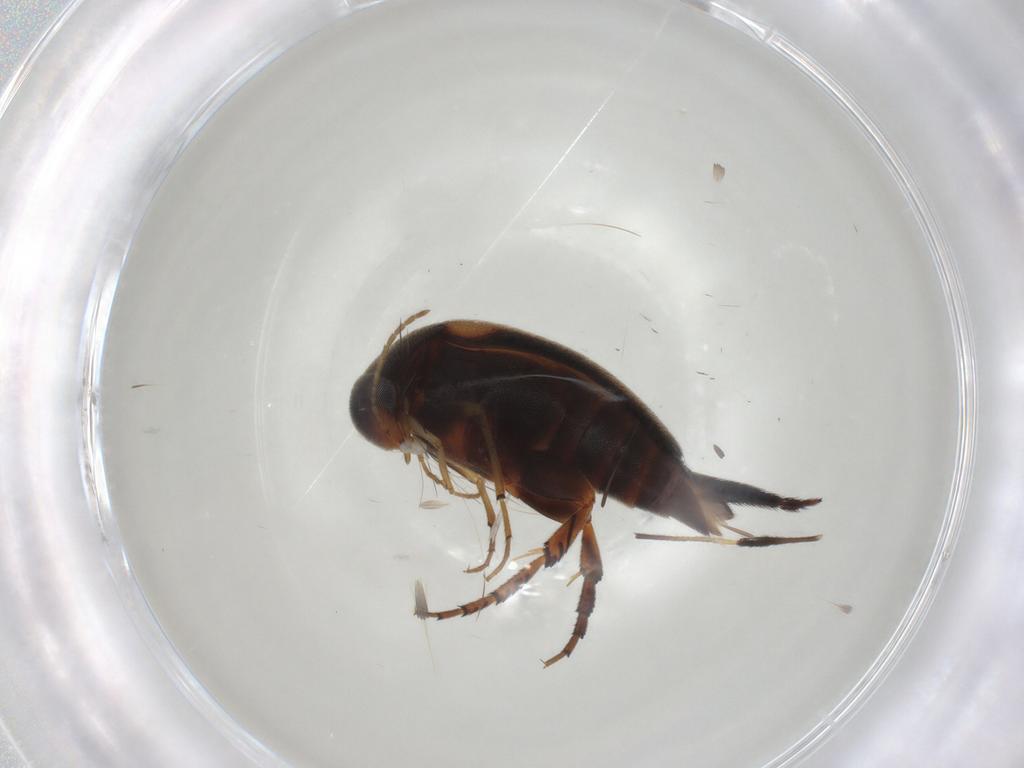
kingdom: Animalia
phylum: Arthropoda
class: Insecta
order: Coleoptera
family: Mordellidae
